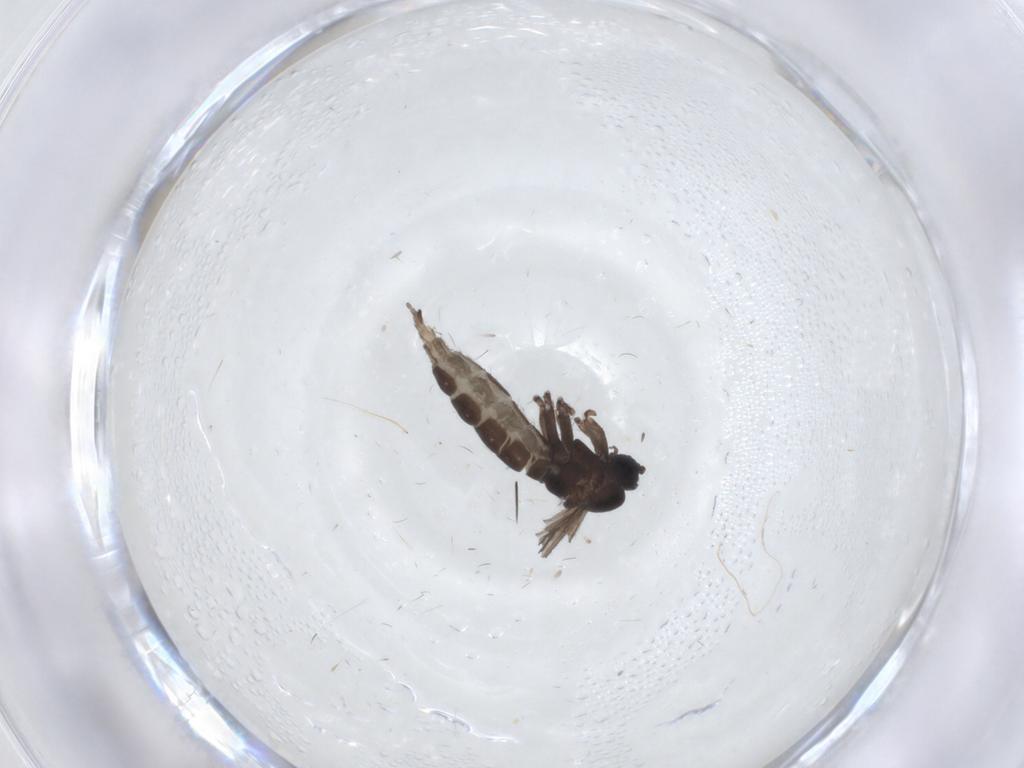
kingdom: Animalia
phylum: Arthropoda
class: Insecta
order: Diptera
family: Sciaridae
